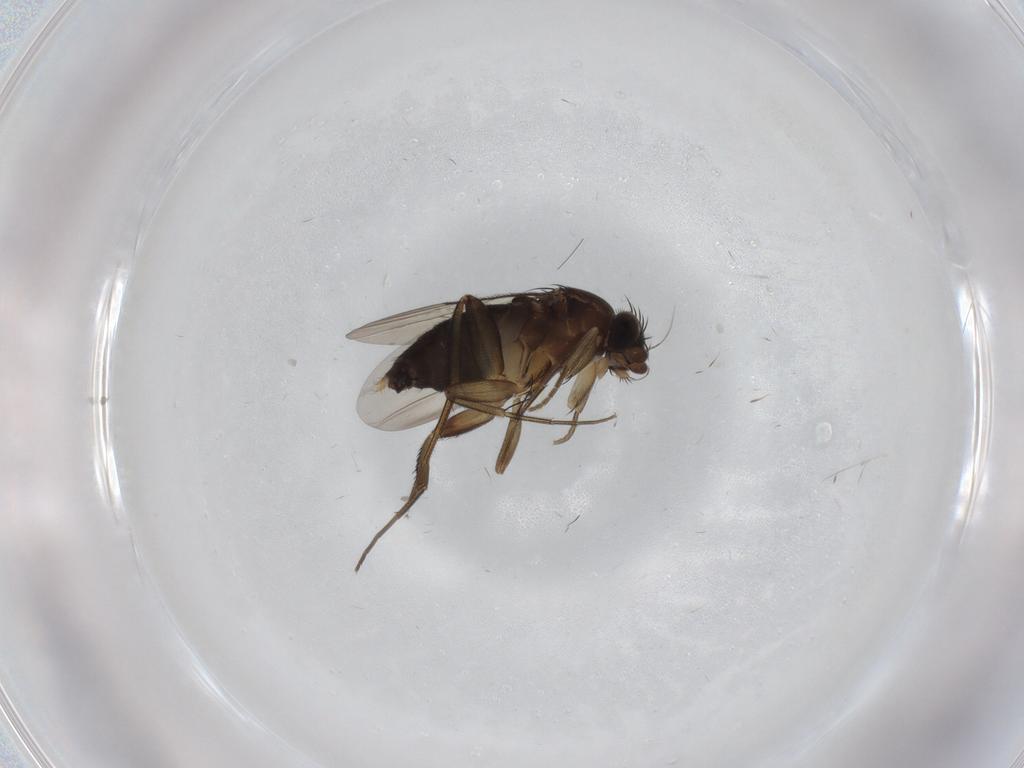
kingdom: Animalia
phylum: Arthropoda
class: Insecta
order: Diptera
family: Phoridae
